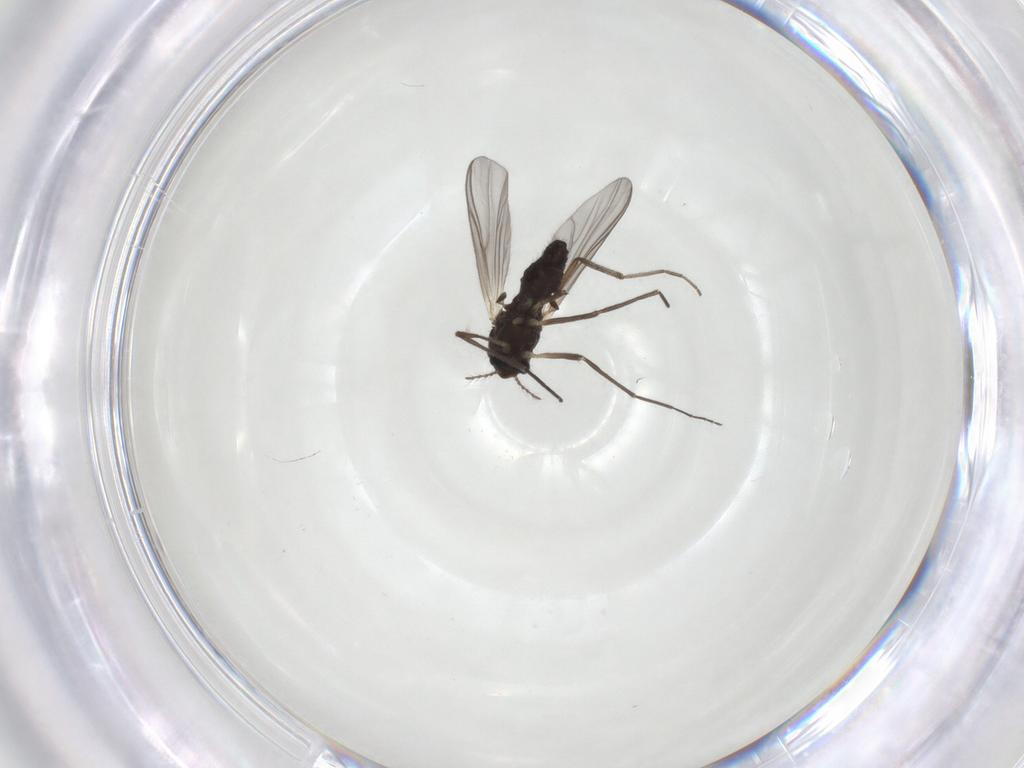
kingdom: Animalia
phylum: Arthropoda
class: Insecta
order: Diptera
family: Chironomidae
